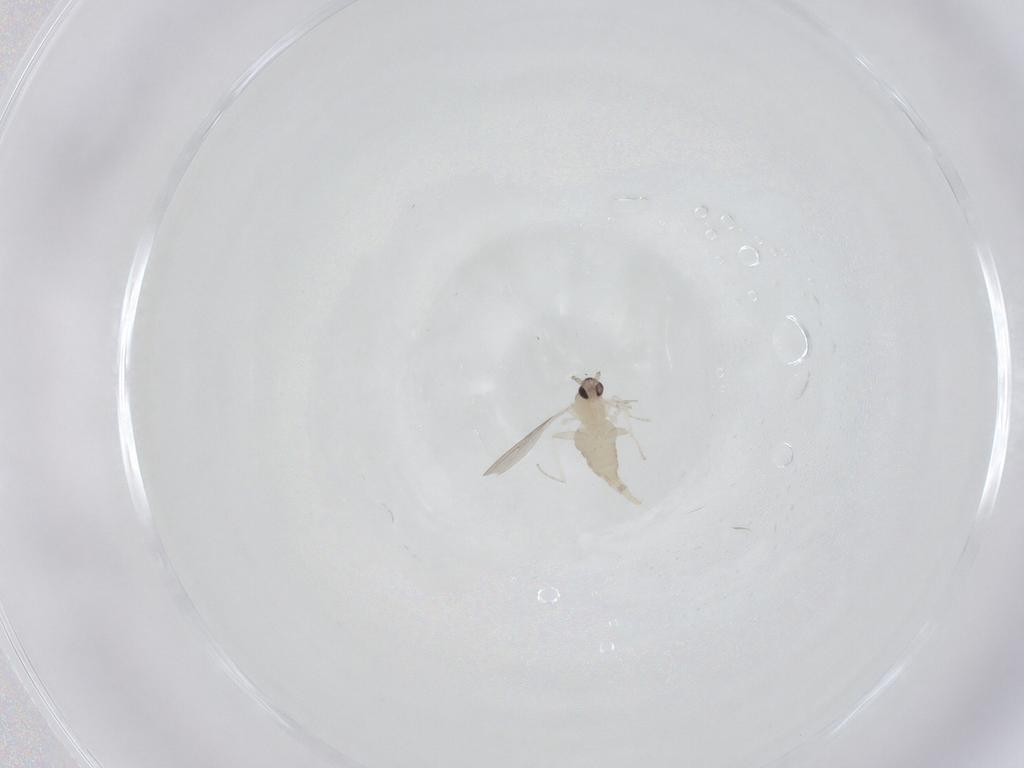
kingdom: Animalia
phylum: Arthropoda
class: Insecta
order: Diptera
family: Cecidomyiidae
